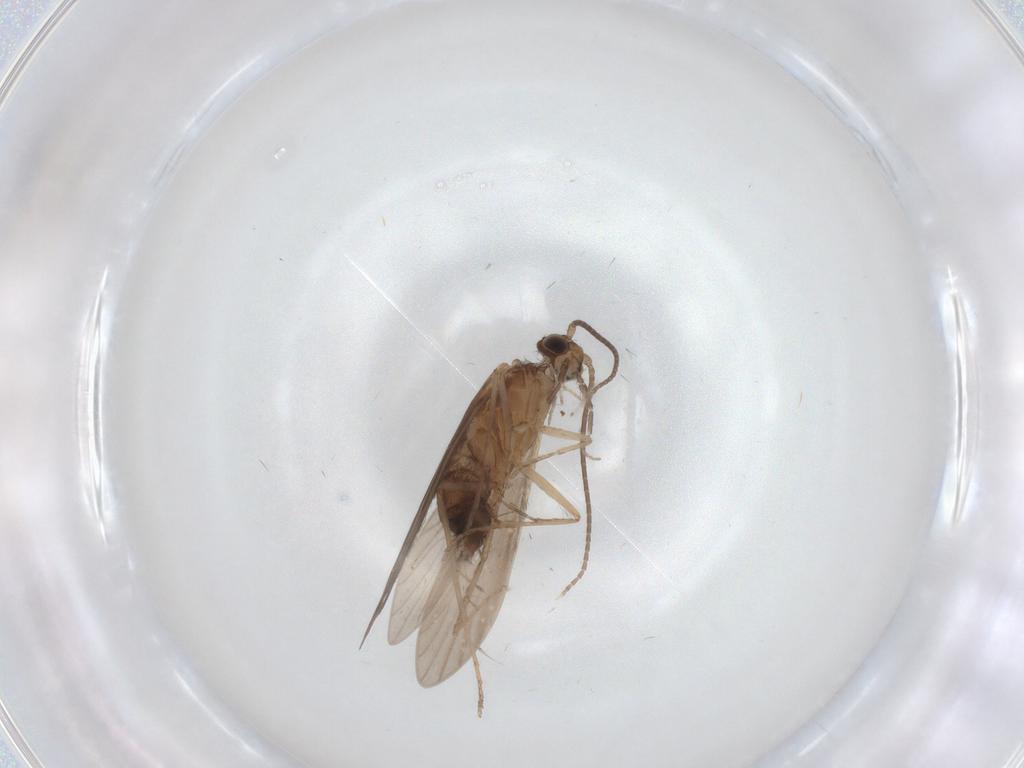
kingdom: Animalia
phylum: Arthropoda
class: Insecta
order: Trichoptera
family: Xiphocentronidae
